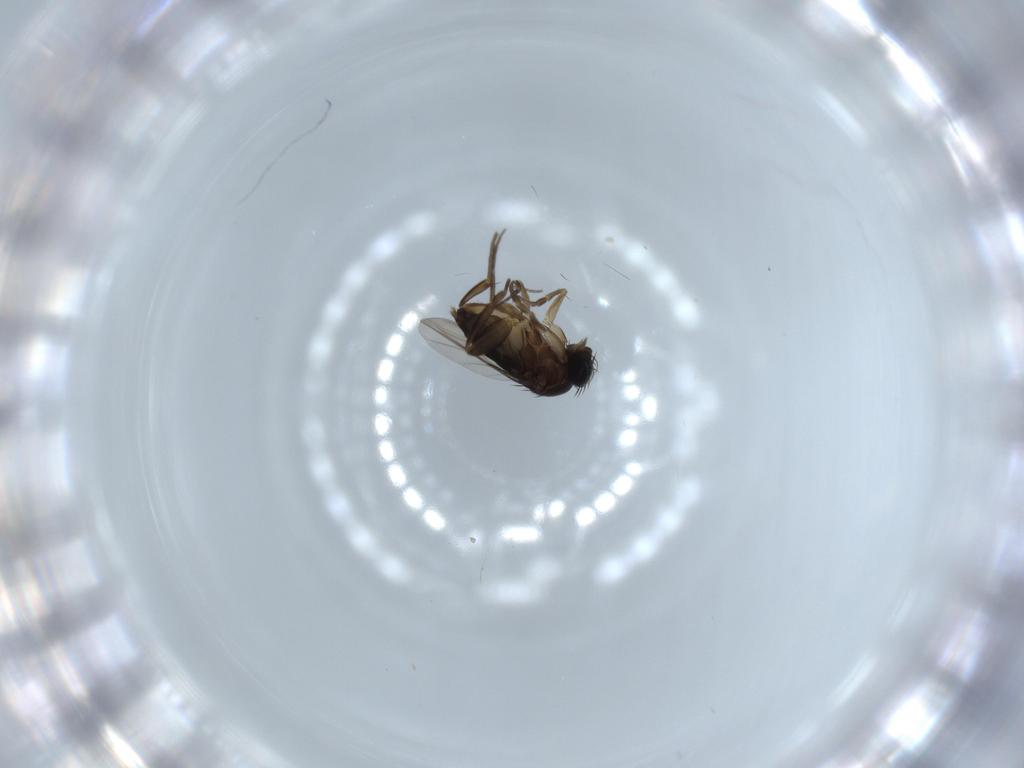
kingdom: Animalia
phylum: Arthropoda
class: Insecta
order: Diptera
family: Phoridae
